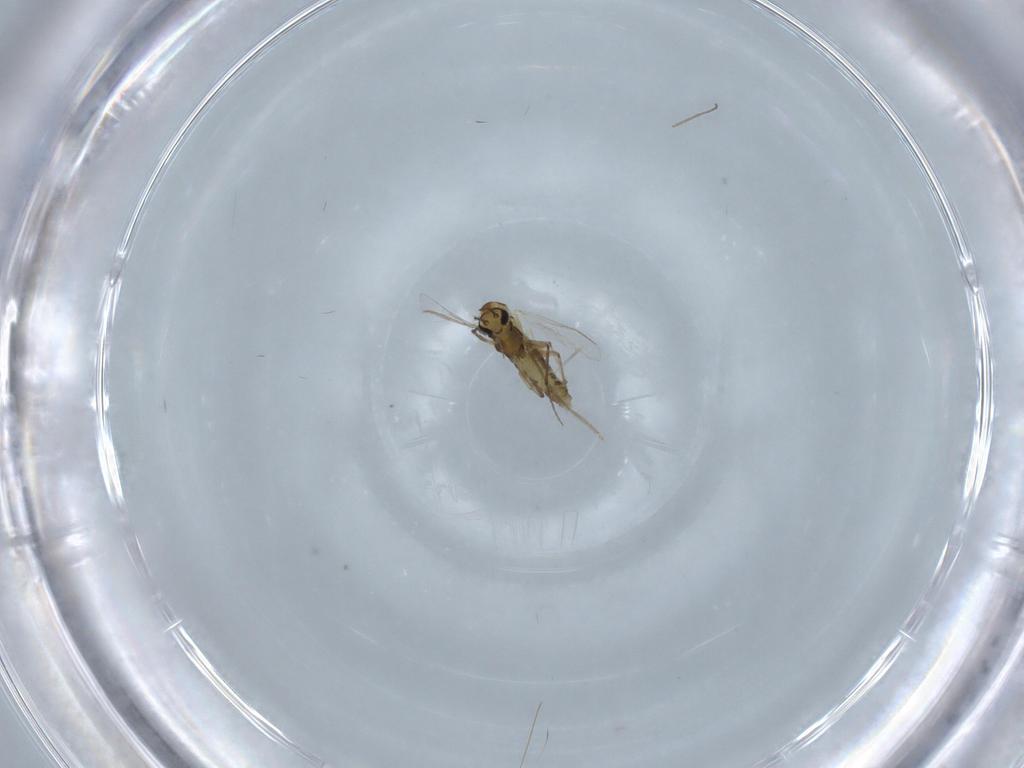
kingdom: Animalia
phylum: Arthropoda
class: Insecta
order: Diptera
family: Chironomidae
